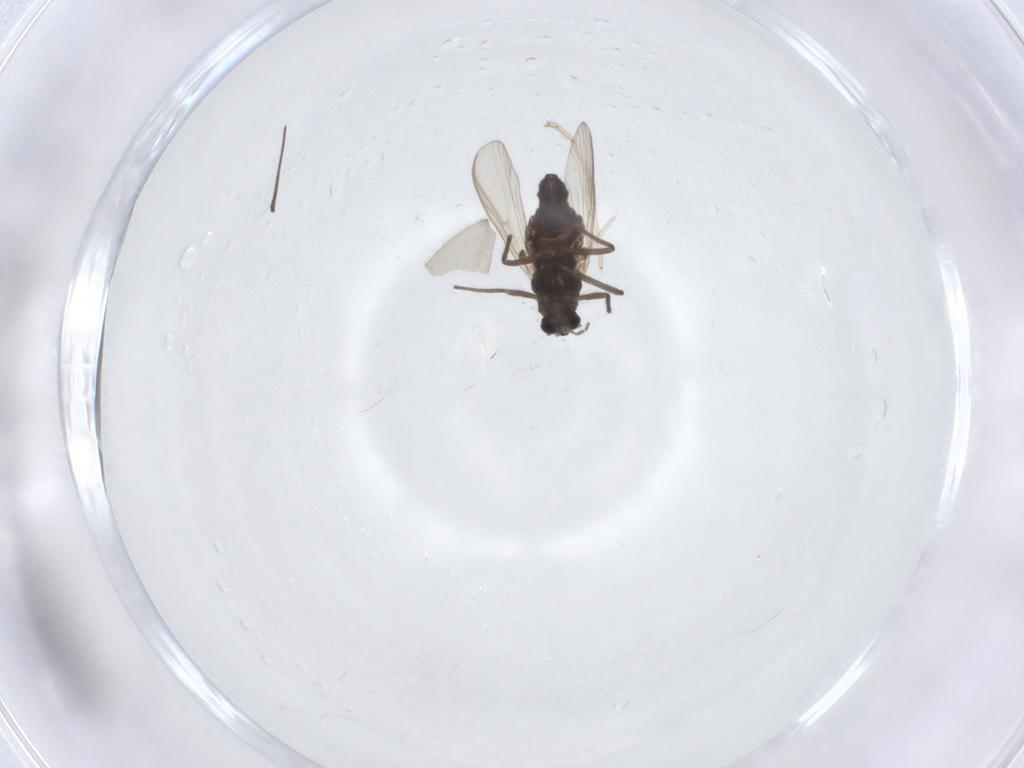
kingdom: Animalia
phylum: Arthropoda
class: Insecta
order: Diptera
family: Cecidomyiidae
